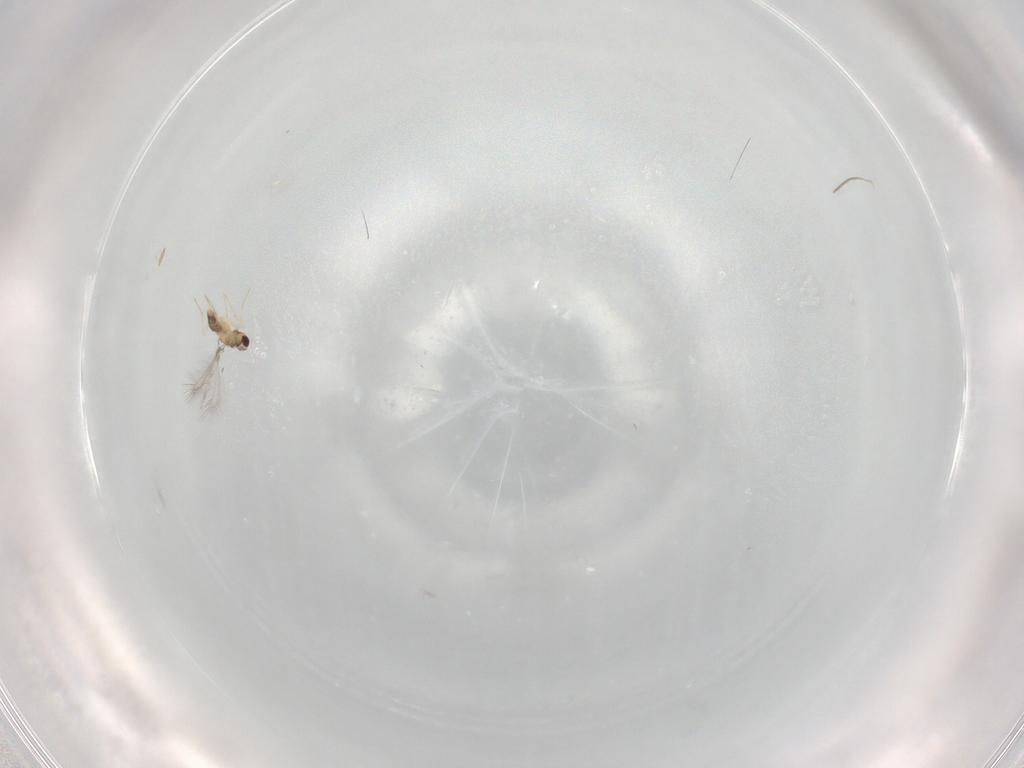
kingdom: Animalia
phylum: Arthropoda
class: Insecta
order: Hymenoptera
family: Mymaridae
